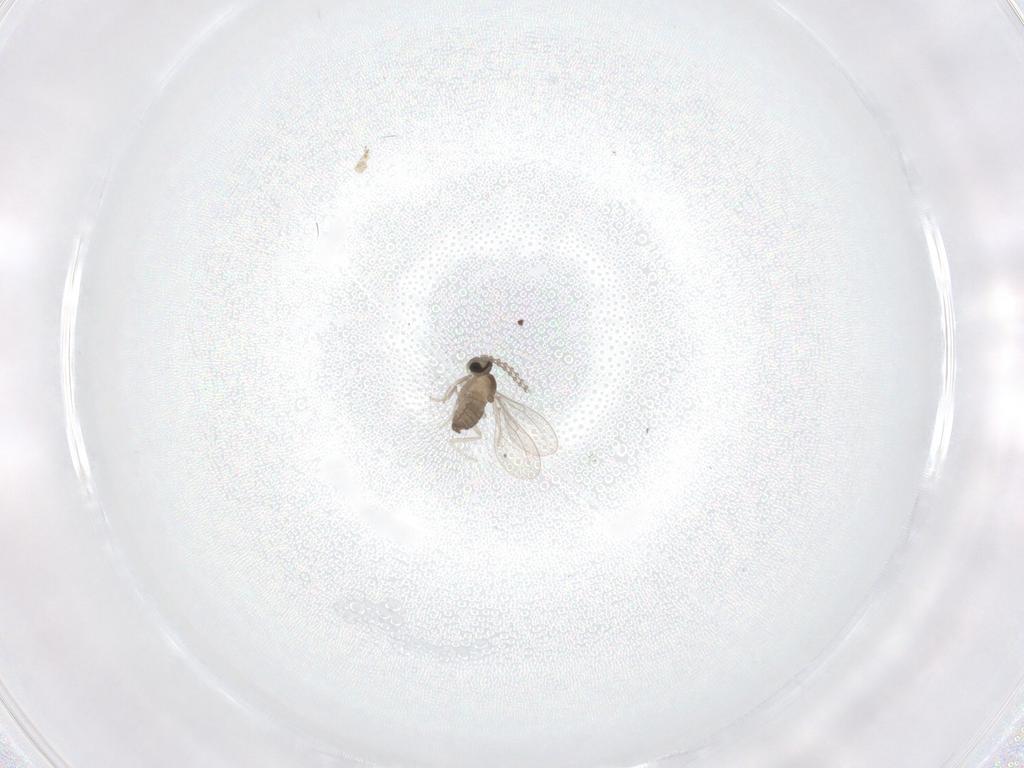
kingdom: Animalia
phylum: Arthropoda
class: Insecta
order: Diptera
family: Cecidomyiidae
